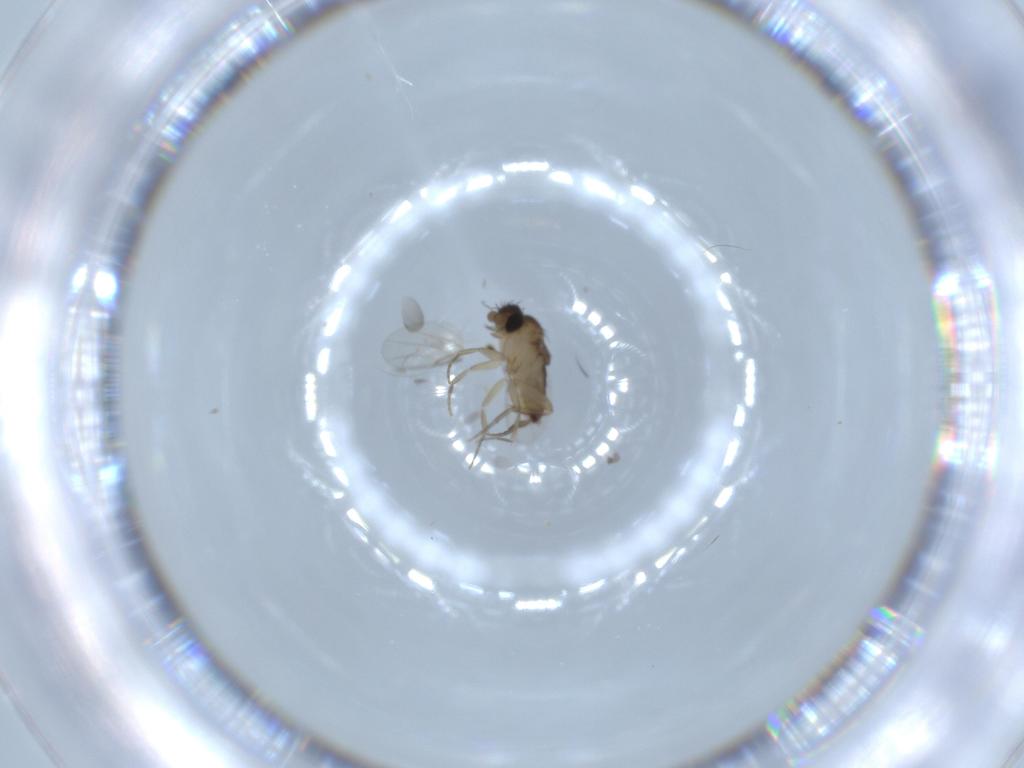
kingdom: Animalia
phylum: Arthropoda
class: Insecta
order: Diptera
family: Phoridae
